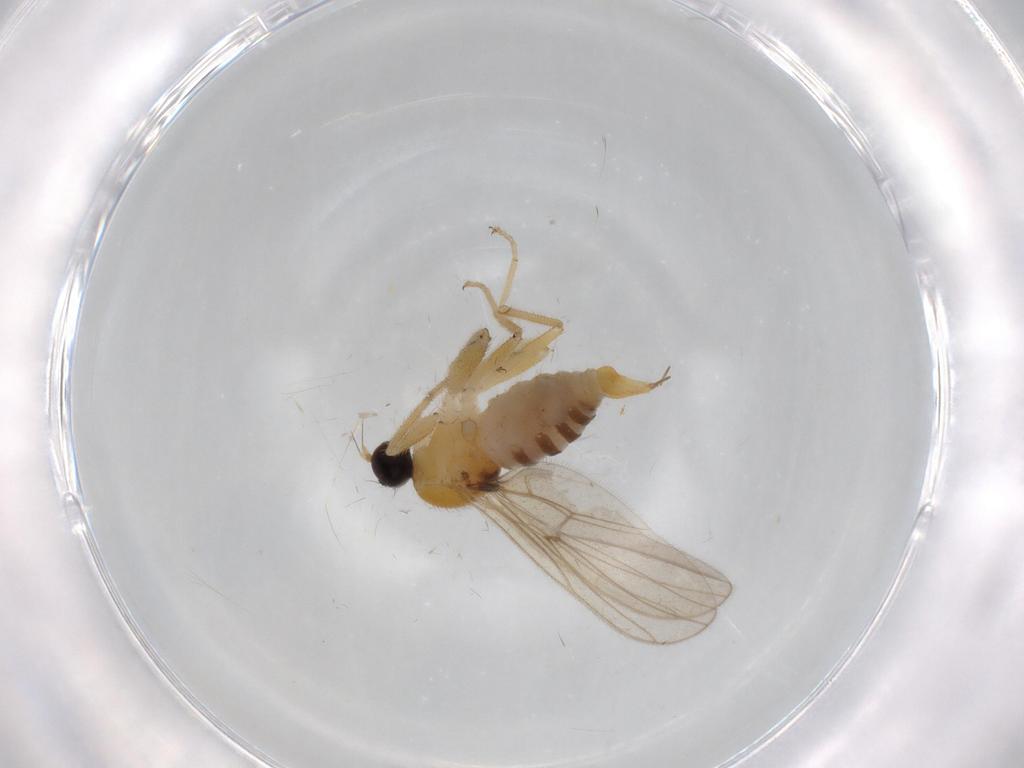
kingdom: Animalia
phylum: Arthropoda
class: Insecta
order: Diptera
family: Hybotidae
